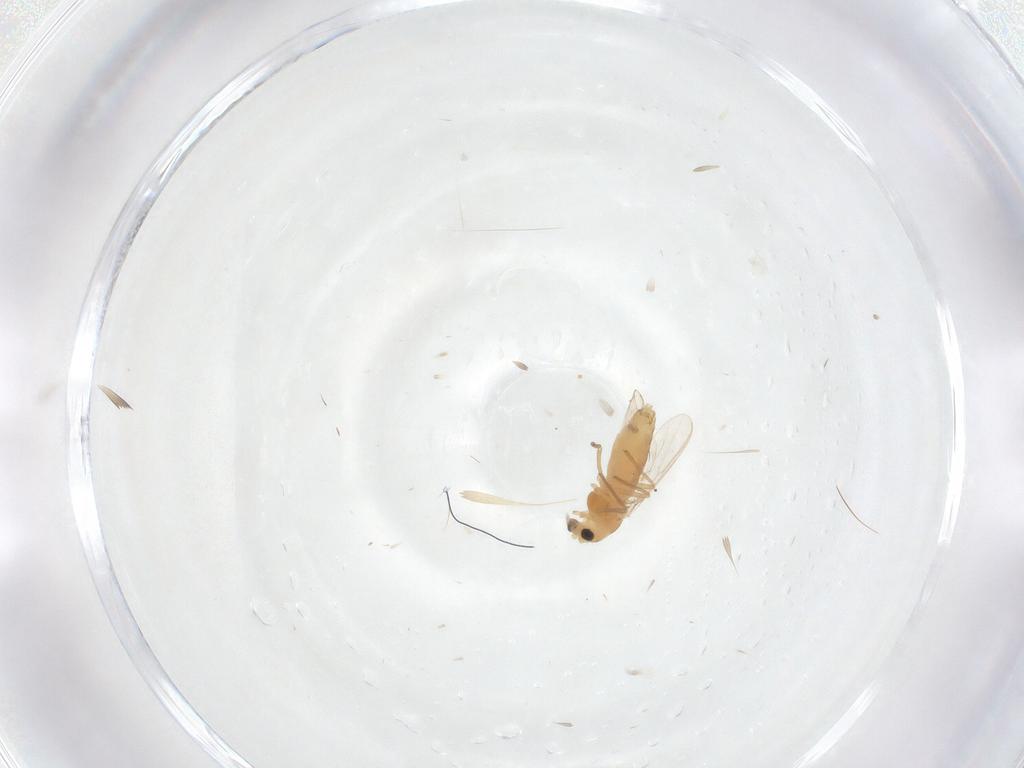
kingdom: Animalia
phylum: Arthropoda
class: Insecta
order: Diptera
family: Chironomidae
